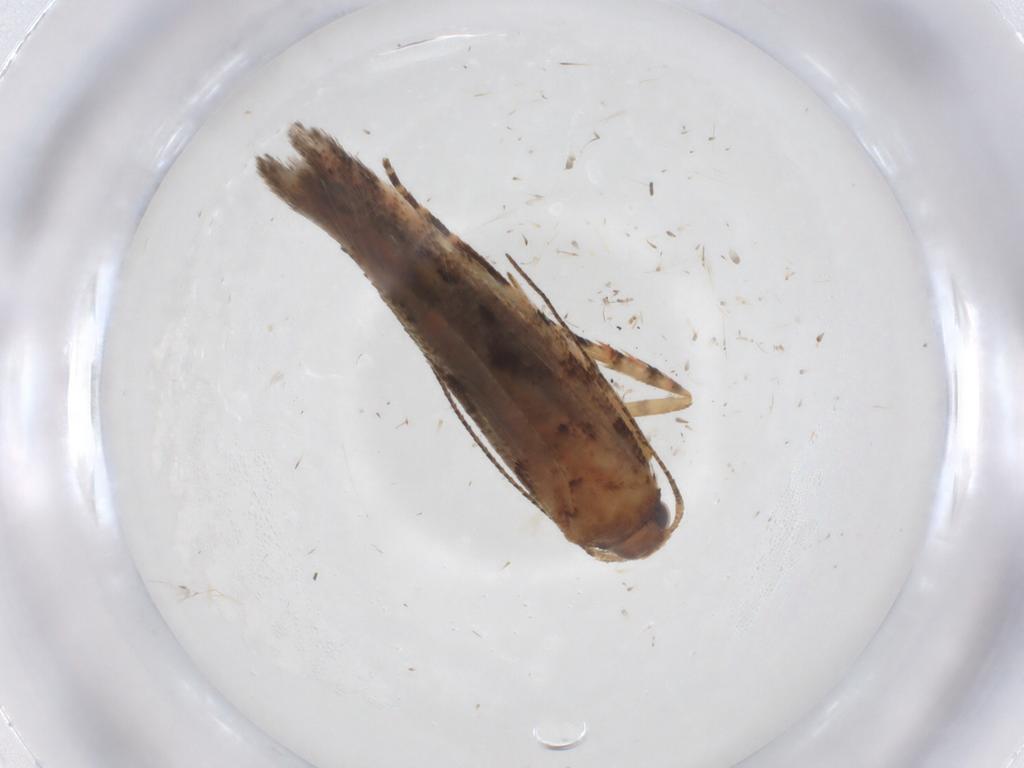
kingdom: Animalia
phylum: Arthropoda
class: Insecta
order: Lepidoptera
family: Gelechiidae
